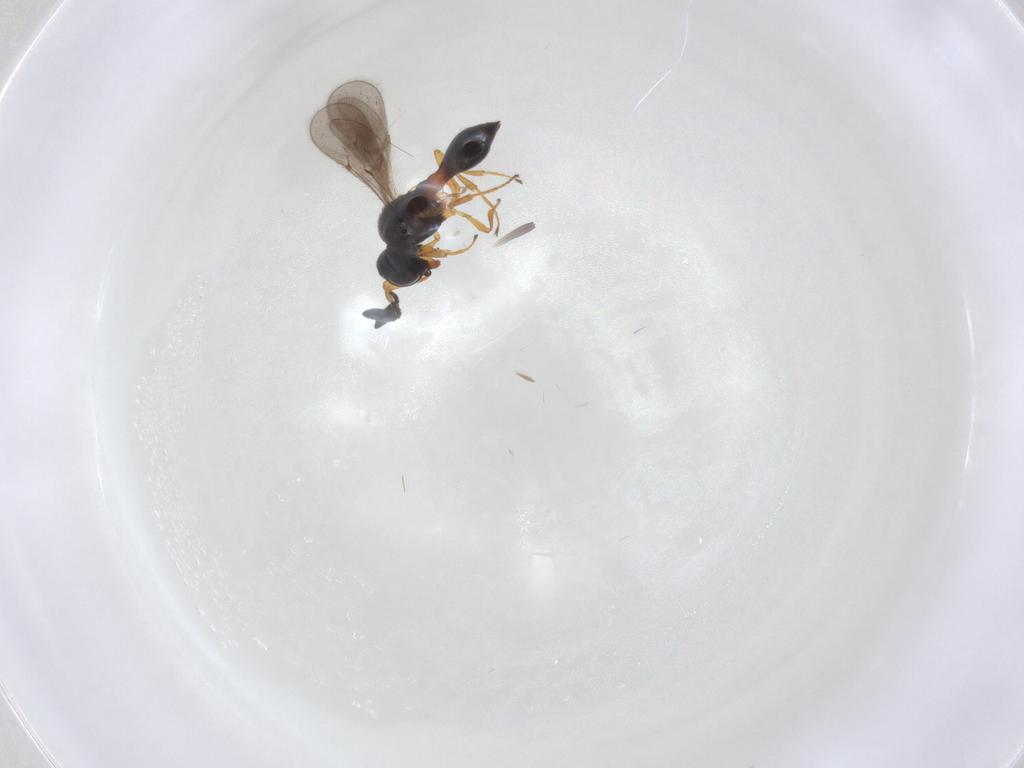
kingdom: Animalia
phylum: Arthropoda
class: Insecta
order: Hymenoptera
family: Scelionidae
